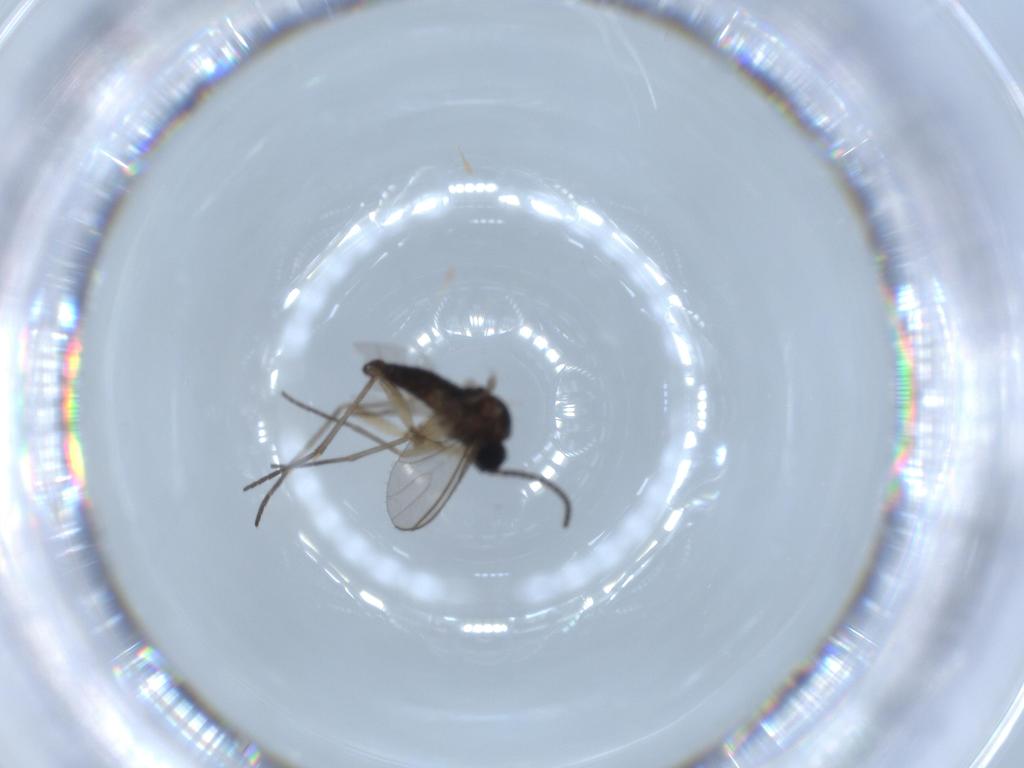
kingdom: Animalia
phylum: Arthropoda
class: Insecta
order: Diptera
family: Sciaridae
